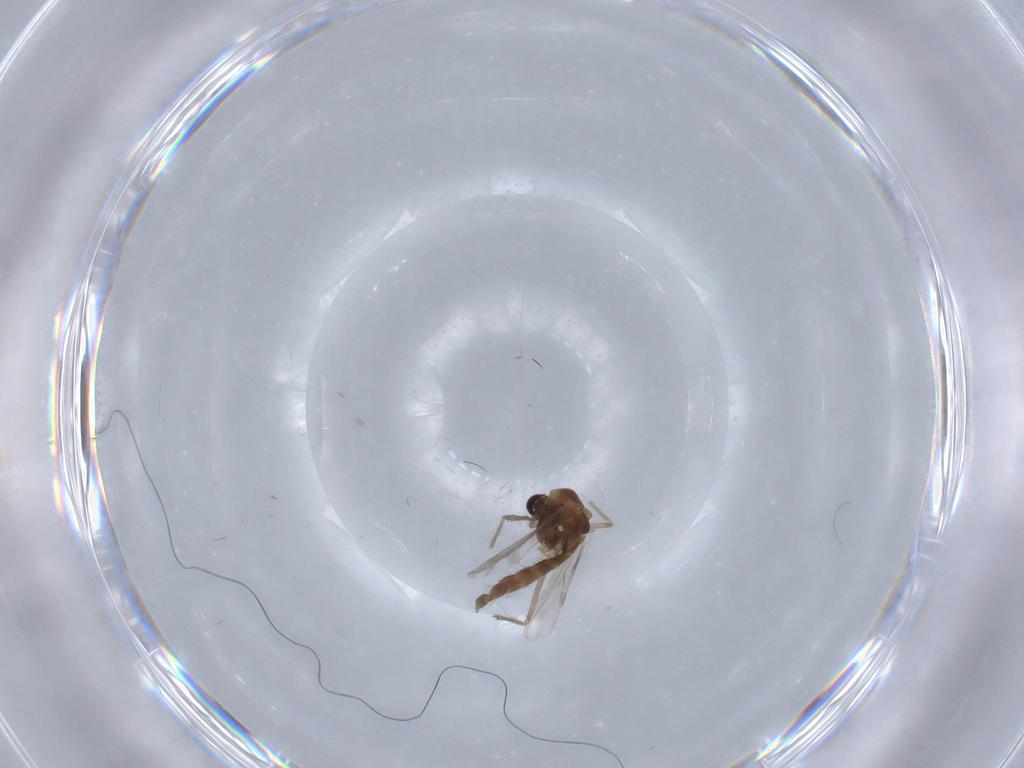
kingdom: Animalia
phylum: Arthropoda
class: Insecta
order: Diptera
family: Chironomidae
